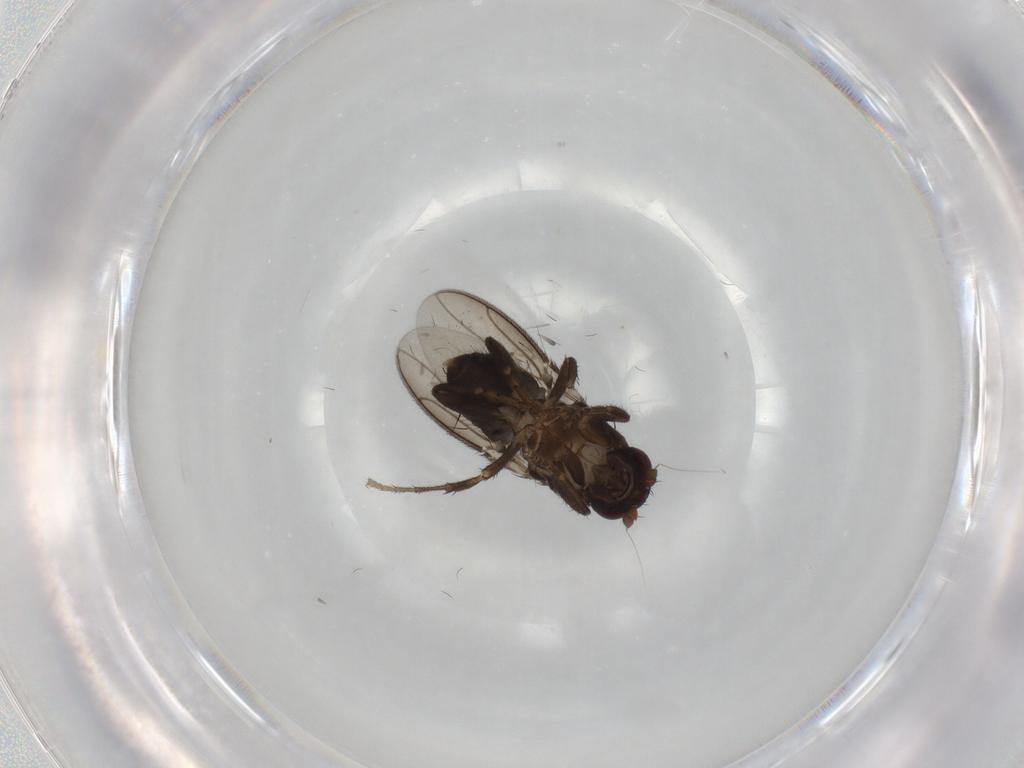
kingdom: Animalia
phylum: Arthropoda
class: Insecta
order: Diptera
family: Sphaeroceridae
